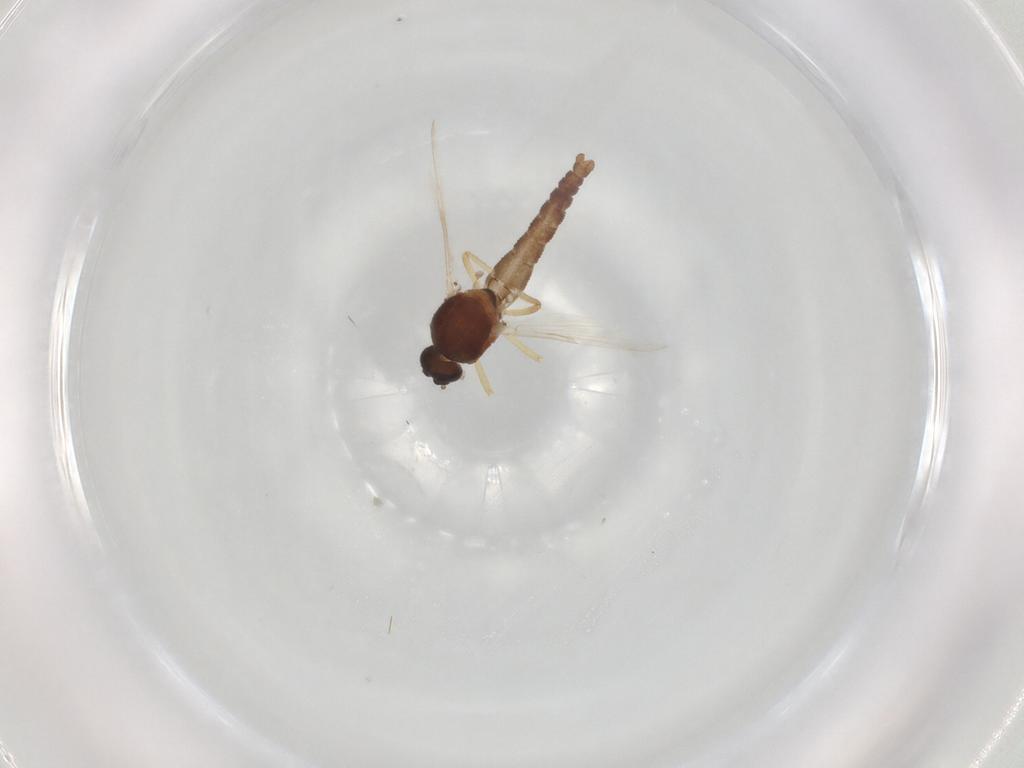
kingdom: Animalia
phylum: Arthropoda
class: Insecta
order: Diptera
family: Ceratopogonidae
